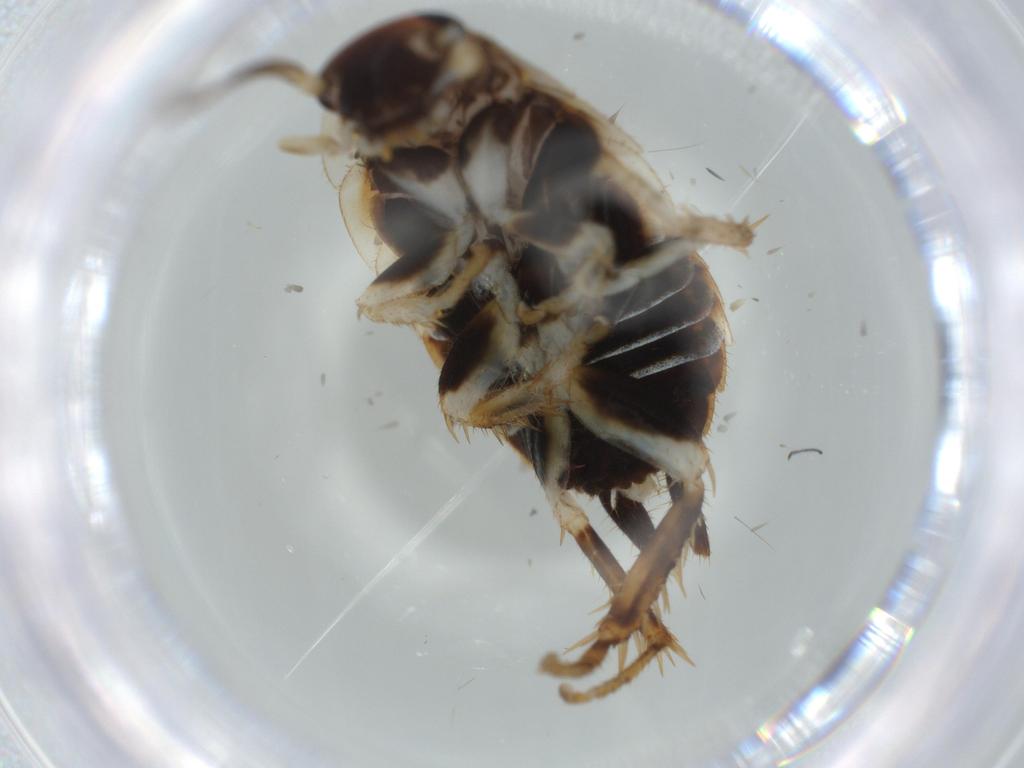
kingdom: Animalia
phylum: Arthropoda
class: Insecta
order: Blattodea
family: Ectobiidae
